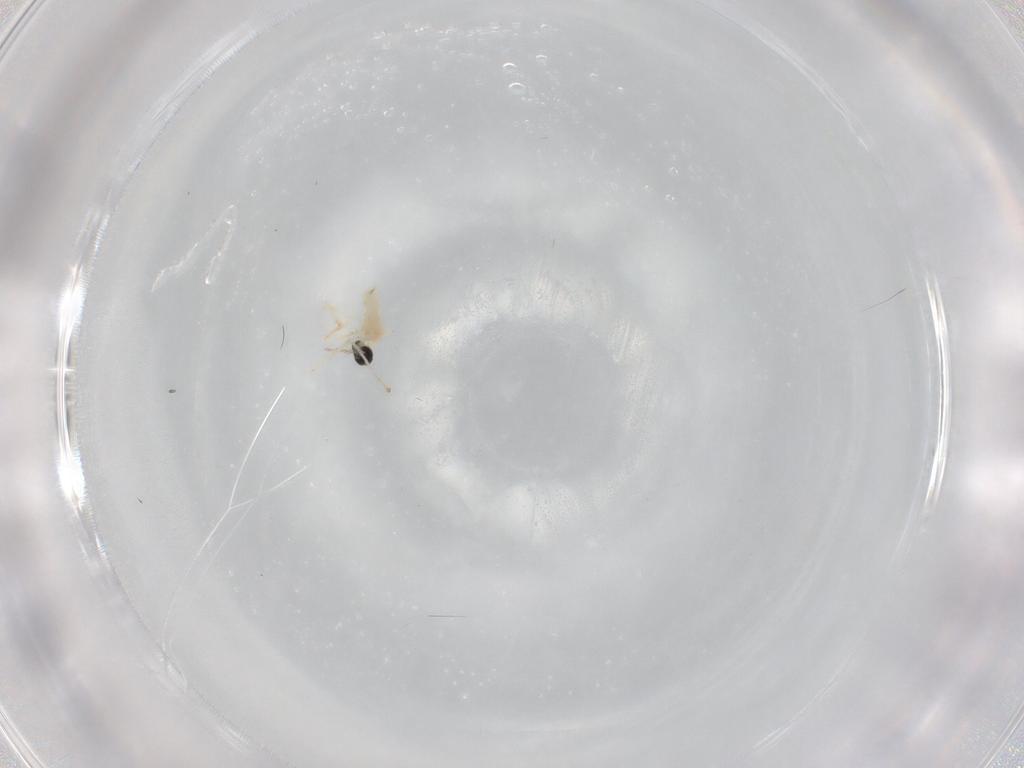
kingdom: Animalia
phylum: Arthropoda
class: Insecta
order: Diptera
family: Cecidomyiidae
